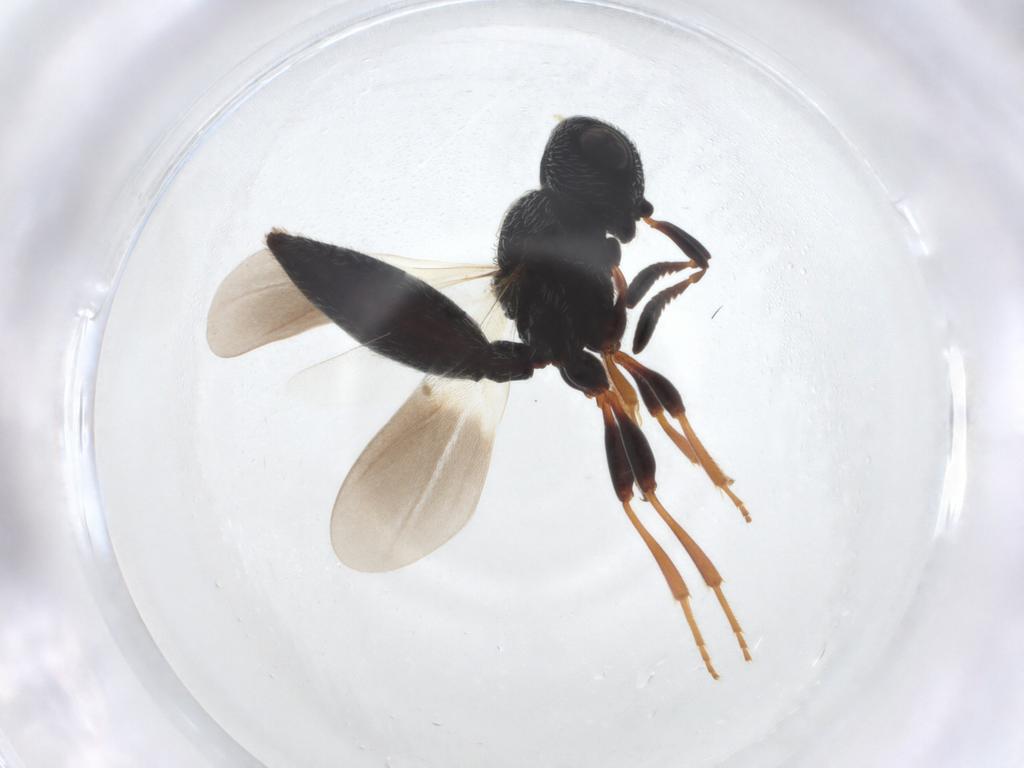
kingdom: Animalia
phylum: Arthropoda
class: Insecta
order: Hymenoptera
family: Scelionidae
